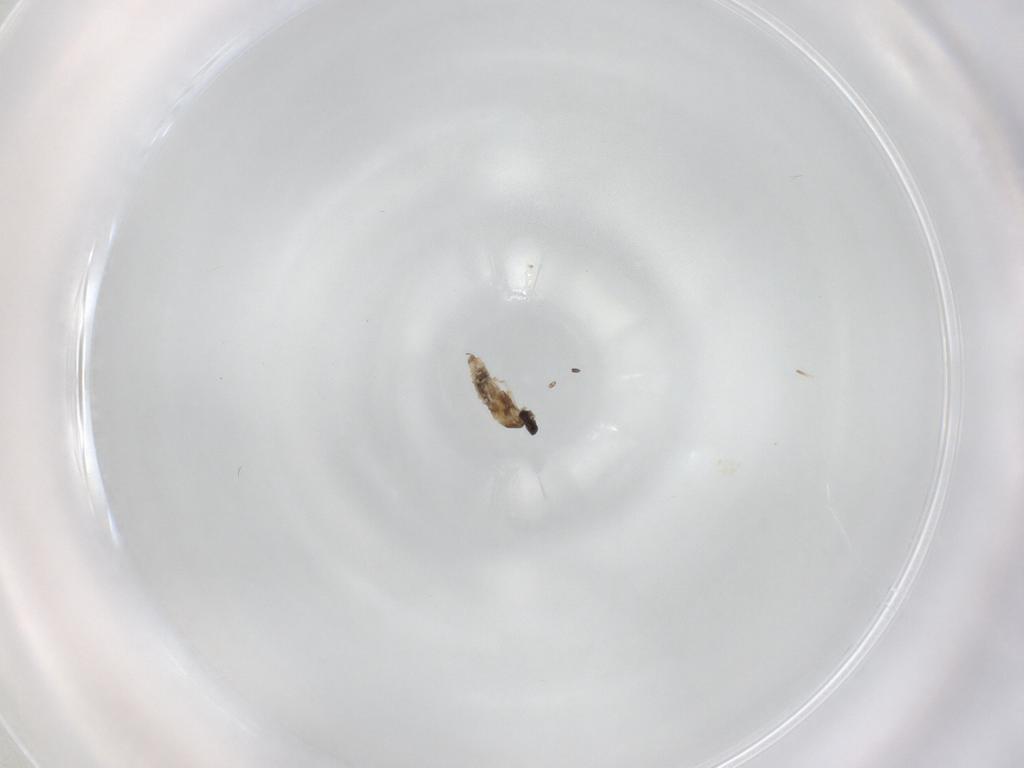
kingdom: Animalia
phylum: Arthropoda
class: Insecta
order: Diptera
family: Cecidomyiidae
